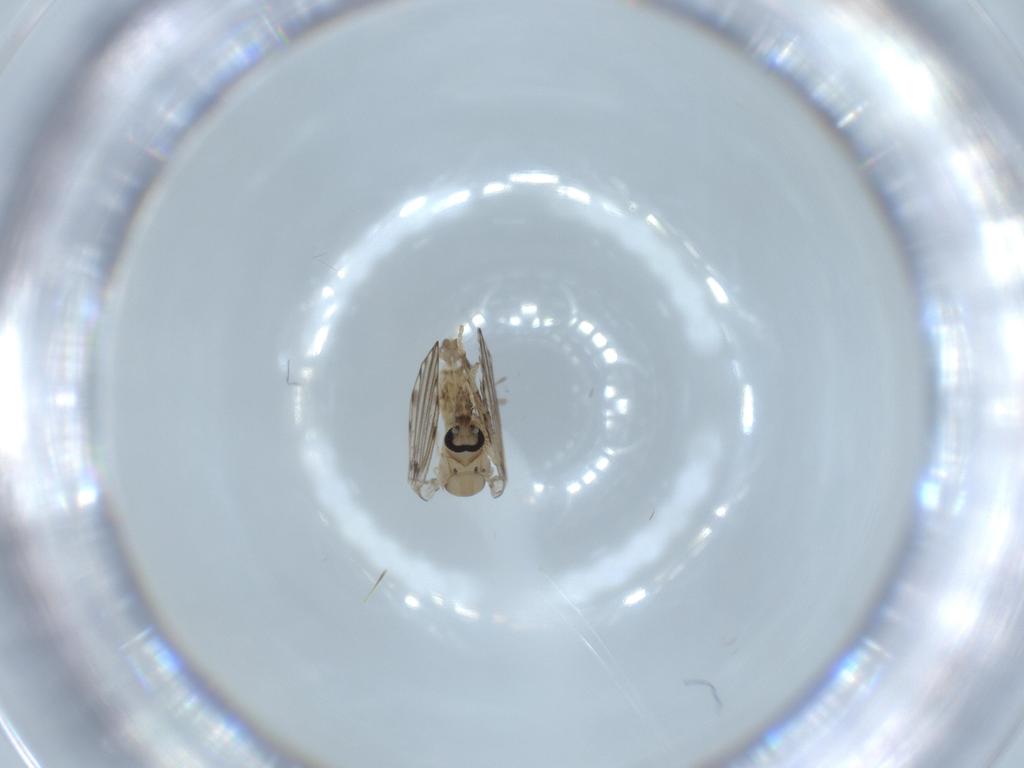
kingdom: Animalia
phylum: Arthropoda
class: Insecta
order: Diptera
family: Psychodidae
